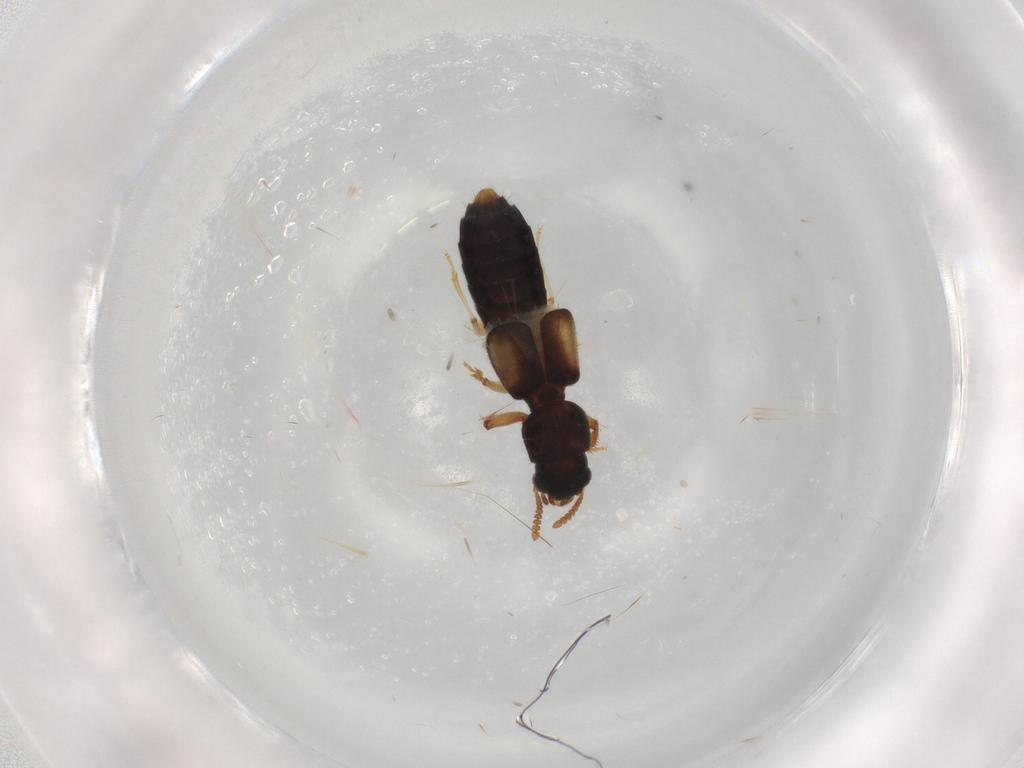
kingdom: Animalia
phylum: Arthropoda
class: Insecta
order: Coleoptera
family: Staphylinidae
